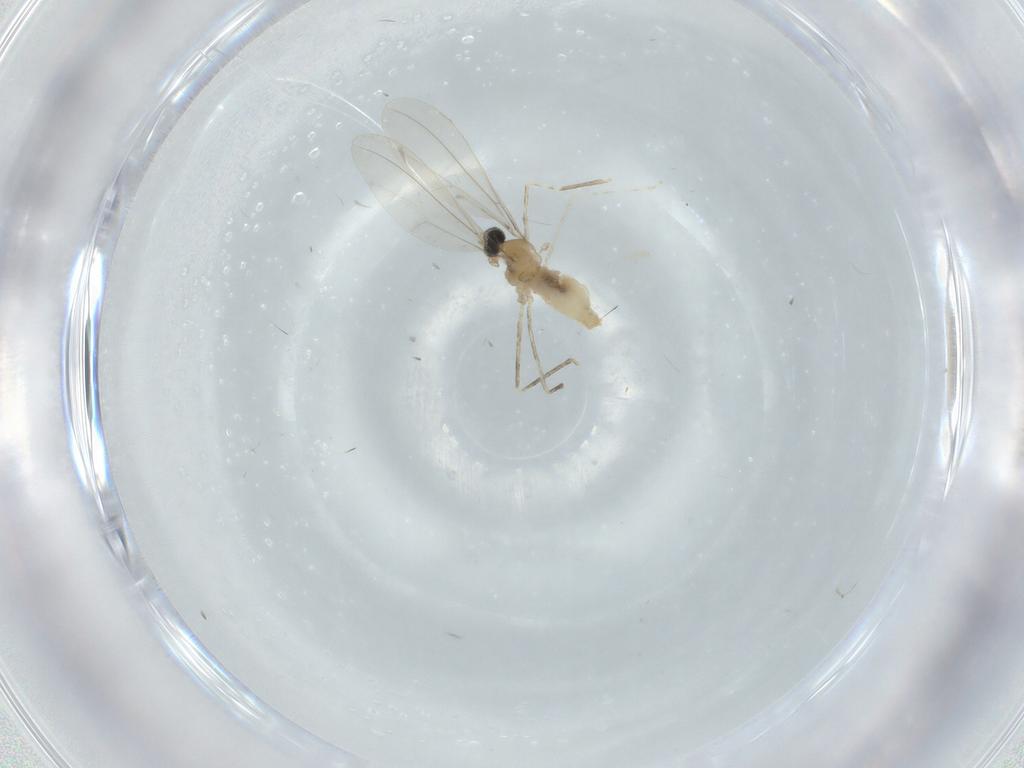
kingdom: Animalia
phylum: Arthropoda
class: Insecta
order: Diptera
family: Cecidomyiidae
